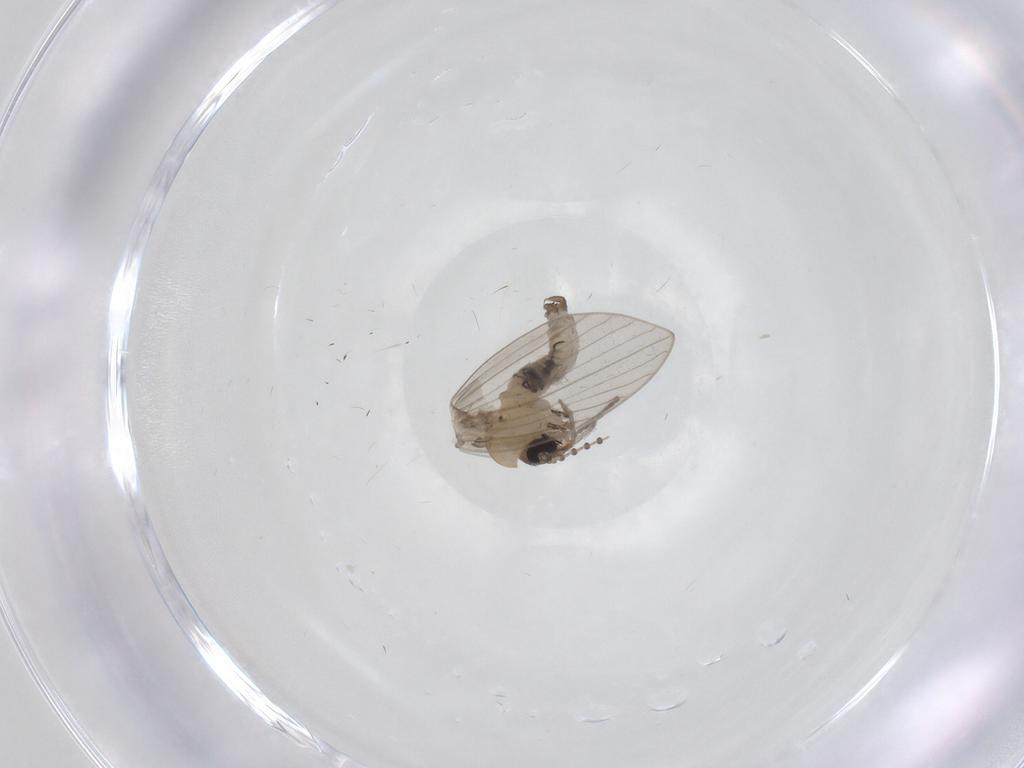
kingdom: Animalia
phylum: Arthropoda
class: Insecta
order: Diptera
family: Psychodidae
